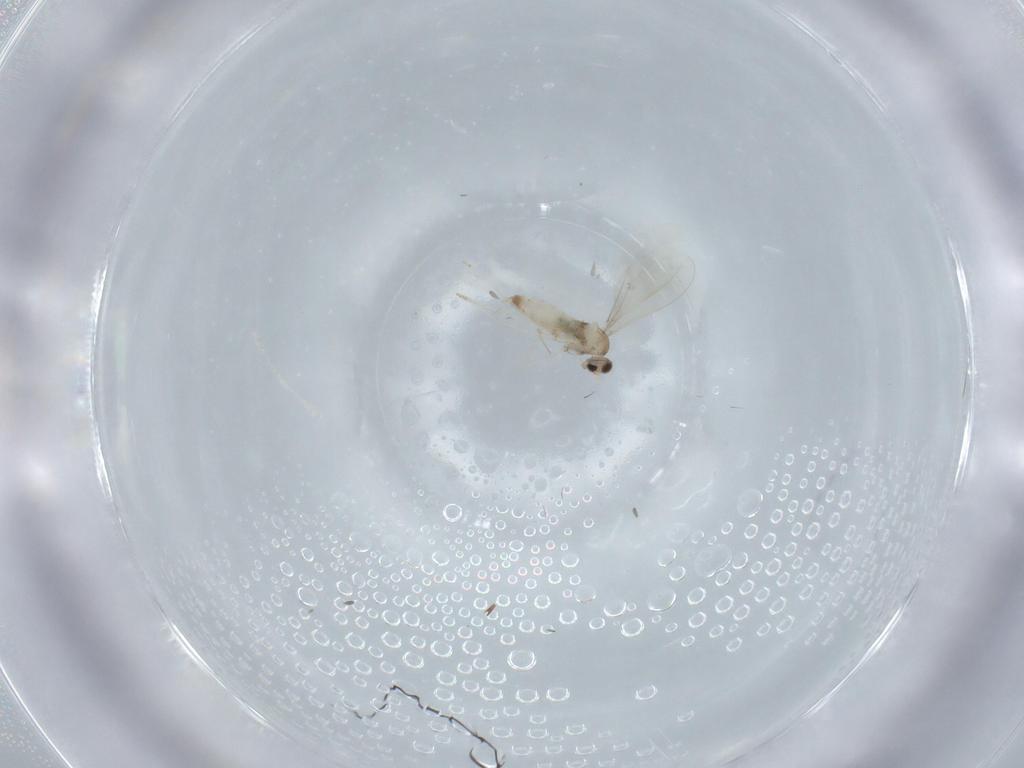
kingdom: Animalia
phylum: Arthropoda
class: Insecta
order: Diptera
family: Cecidomyiidae
